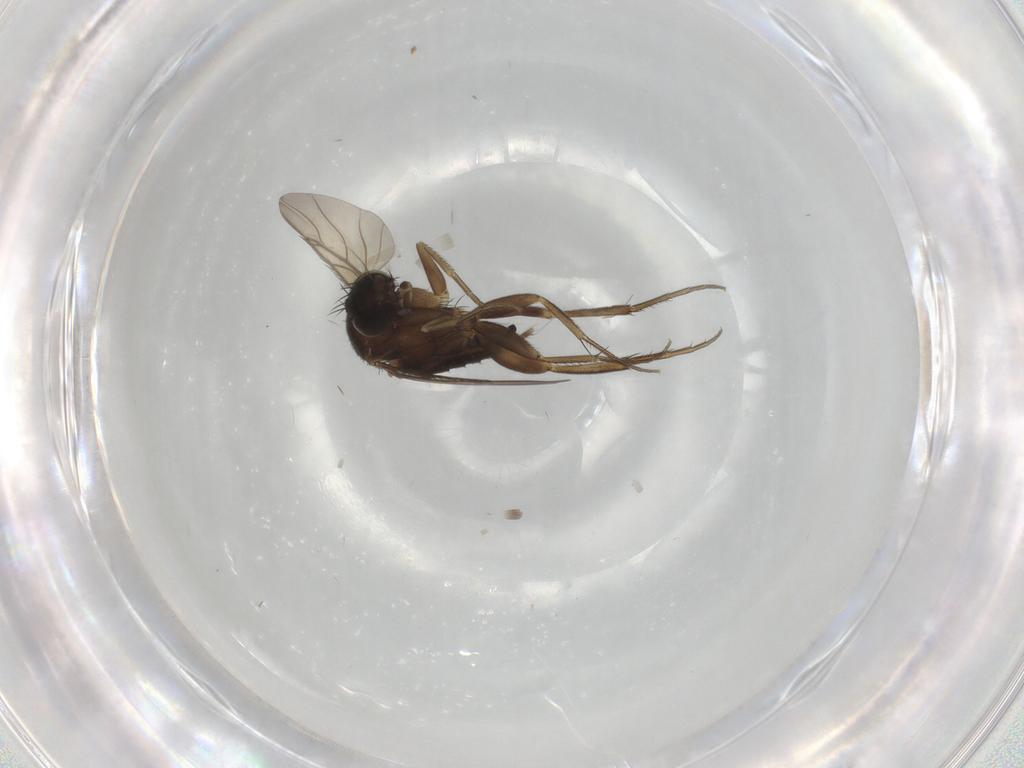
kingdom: Animalia
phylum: Arthropoda
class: Insecta
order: Diptera
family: Phoridae
